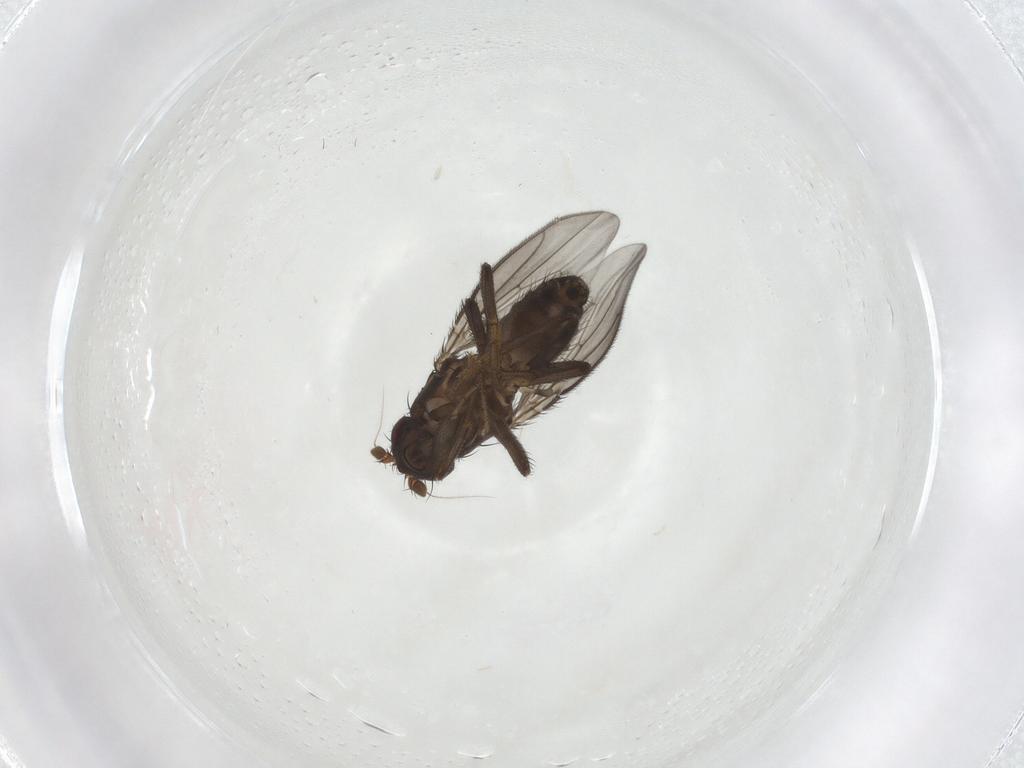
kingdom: Animalia
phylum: Arthropoda
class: Insecta
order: Diptera
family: Sphaeroceridae
